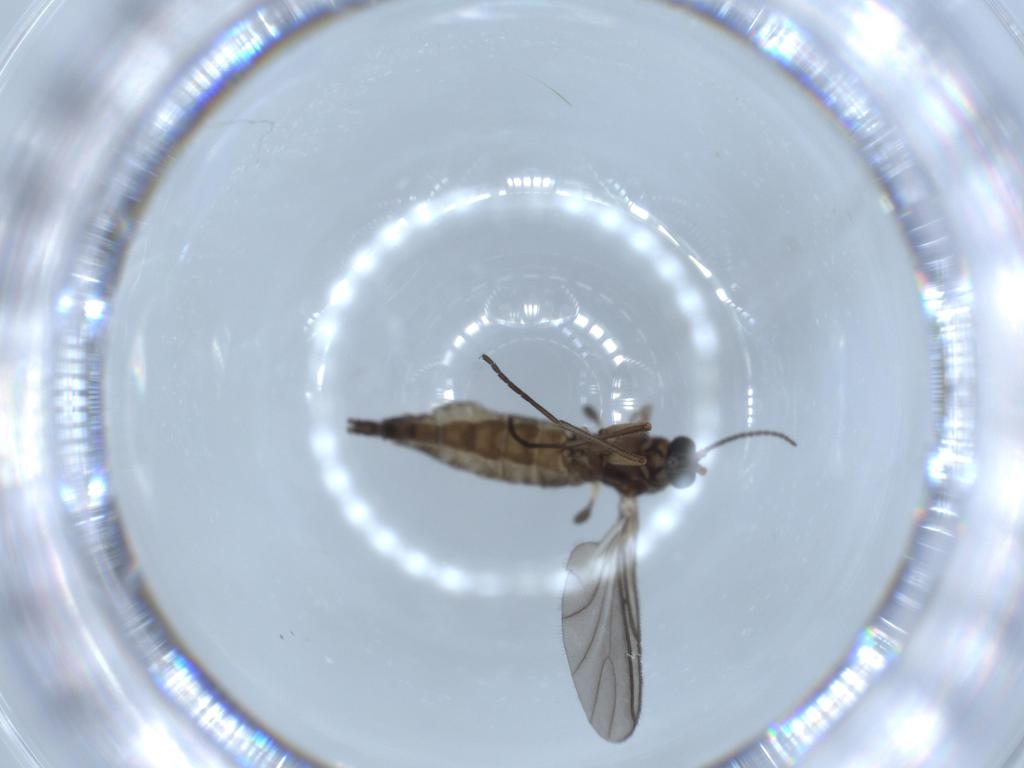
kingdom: Animalia
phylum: Arthropoda
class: Insecta
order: Diptera
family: Sciaridae
